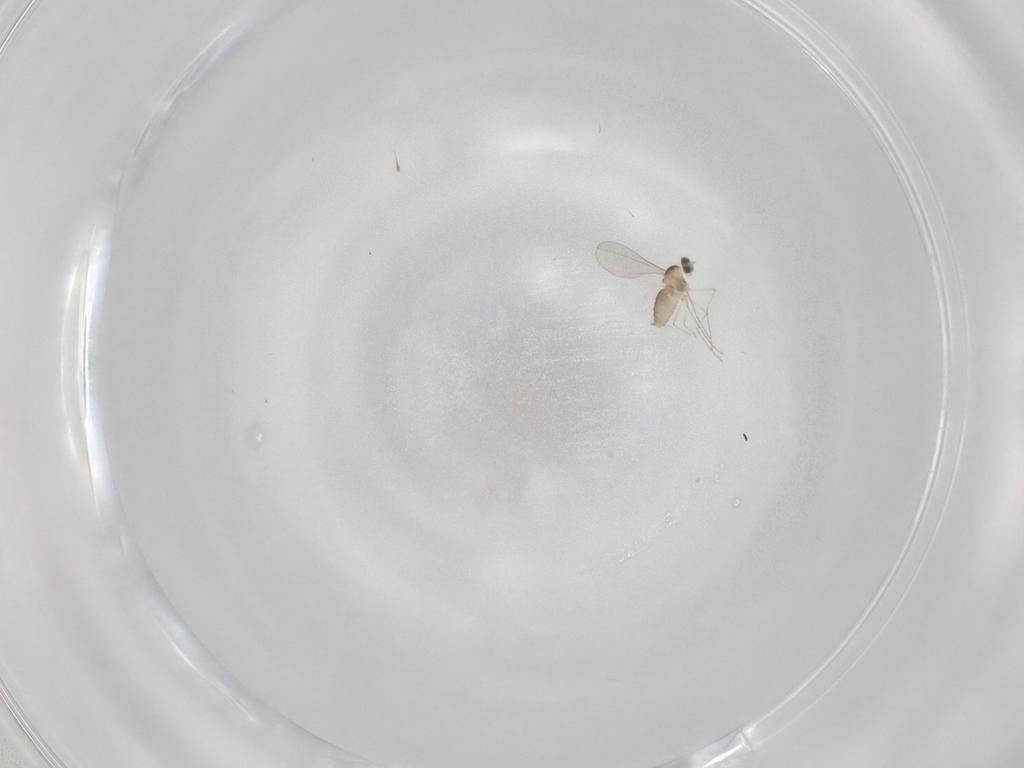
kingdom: Animalia
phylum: Arthropoda
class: Insecta
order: Diptera
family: Cecidomyiidae
